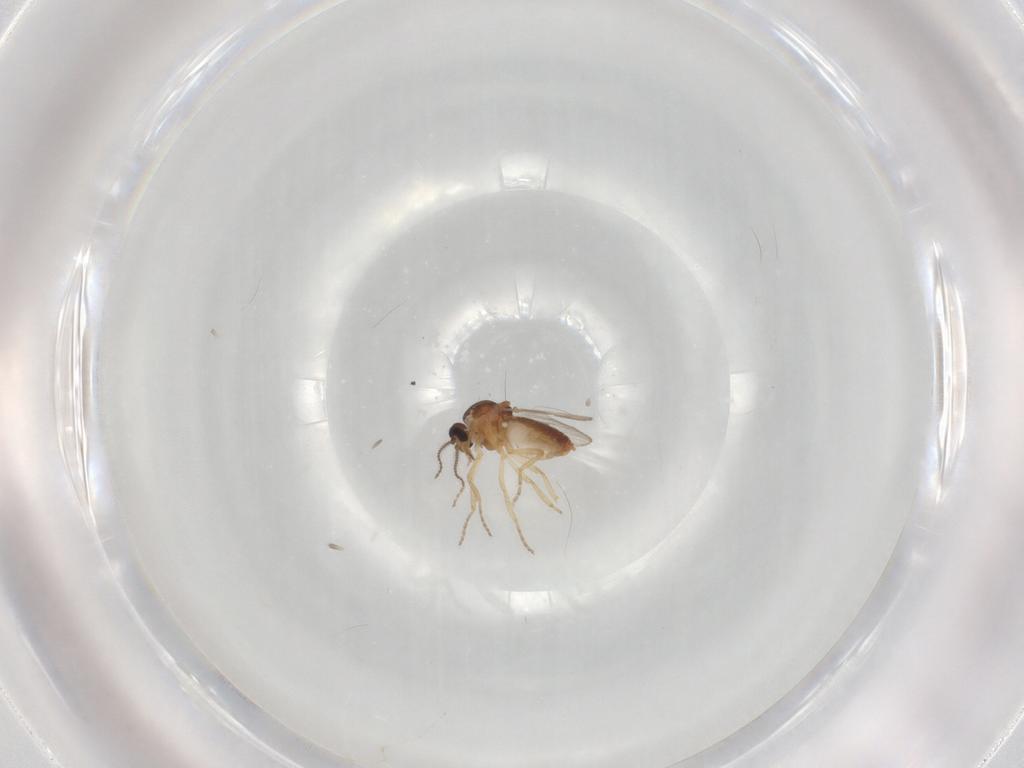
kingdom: Animalia
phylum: Arthropoda
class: Insecta
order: Diptera
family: Ceratopogonidae
